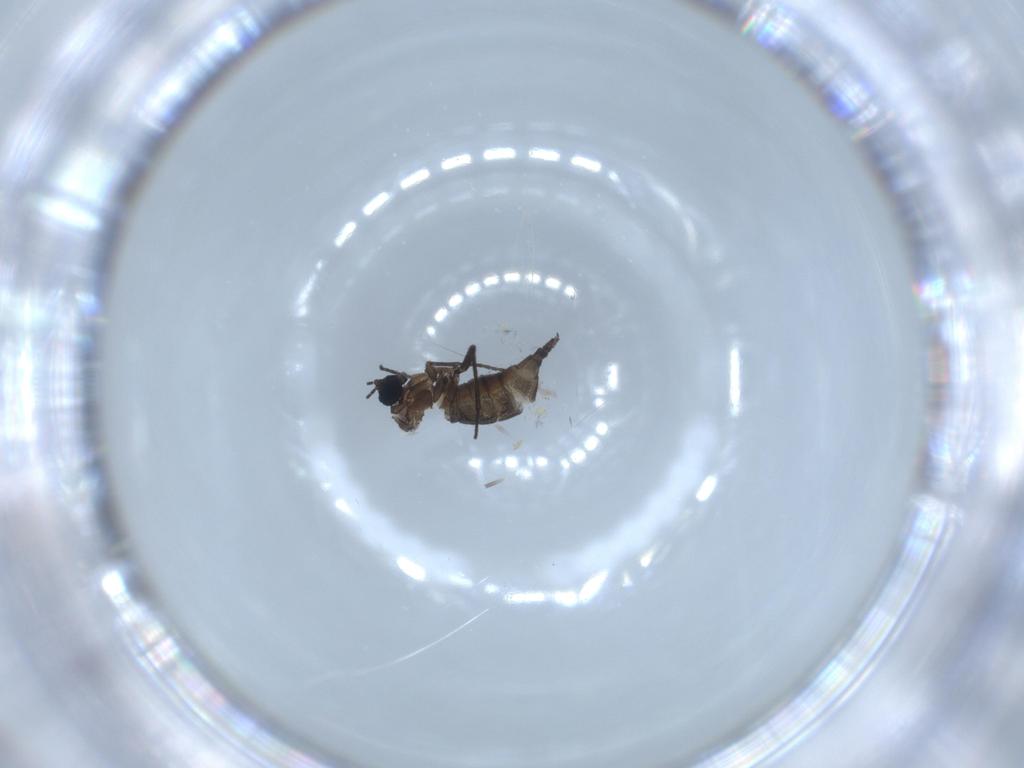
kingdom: Animalia
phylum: Arthropoda
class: Insecta
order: Diptera
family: Sciaridae
